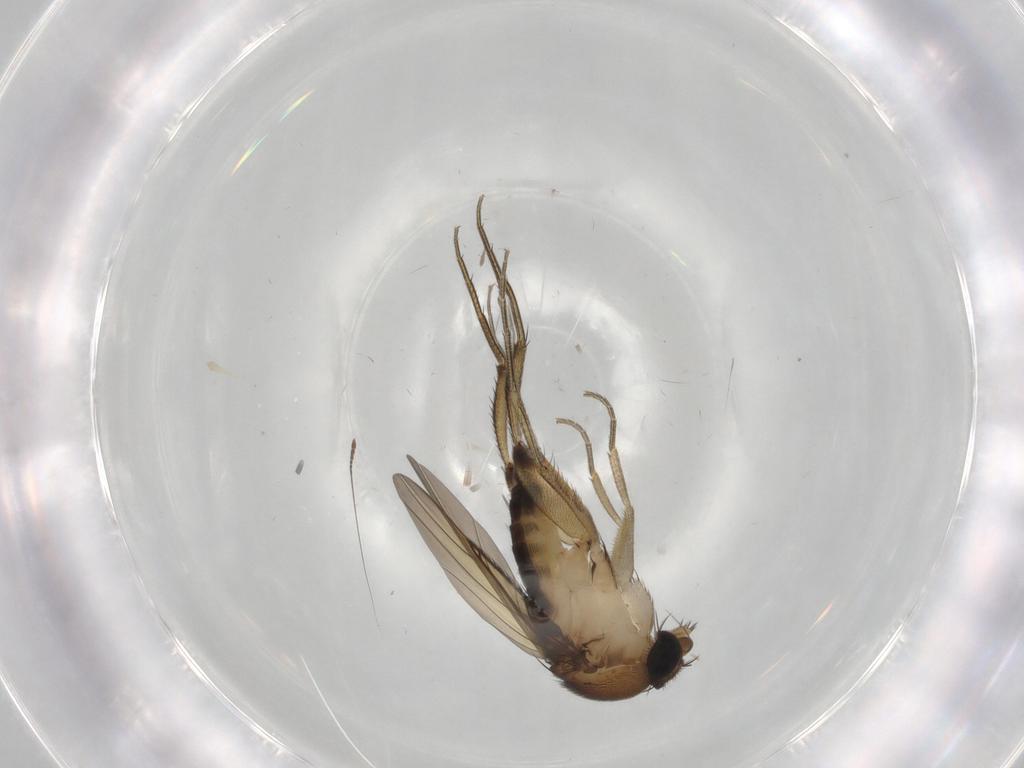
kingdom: Animalia
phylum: Arthropoda
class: Insecta
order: Diptera
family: Phoridae
